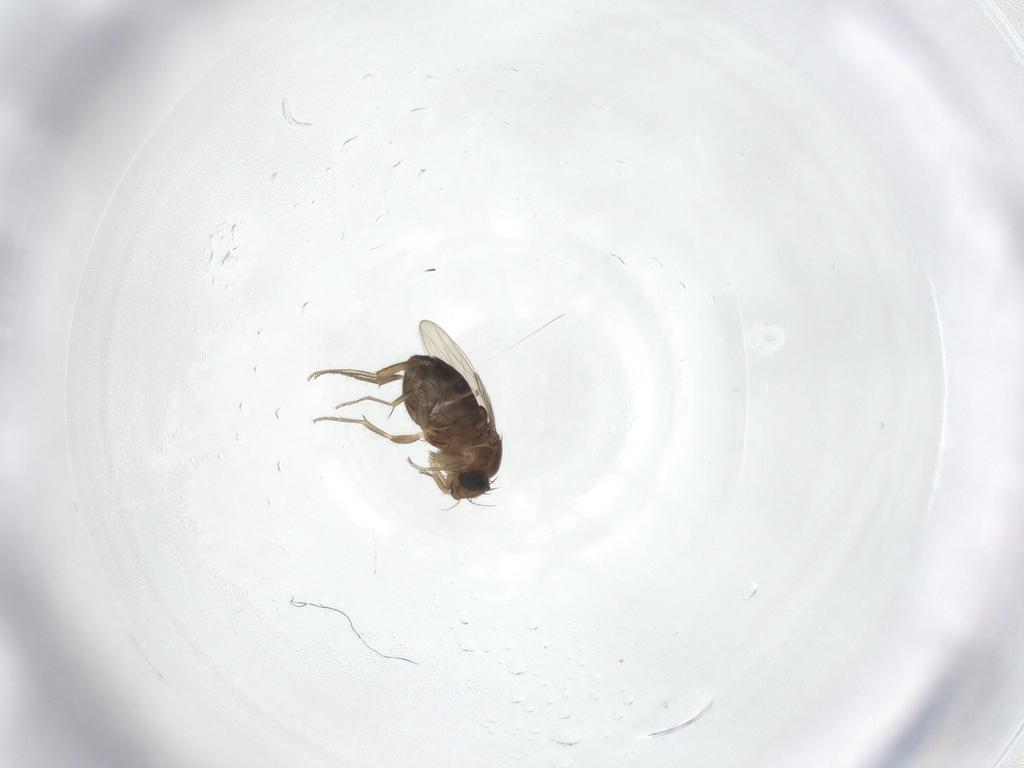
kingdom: Animalia
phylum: Arthropoda
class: Insecta
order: Diptera
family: Phoridae
